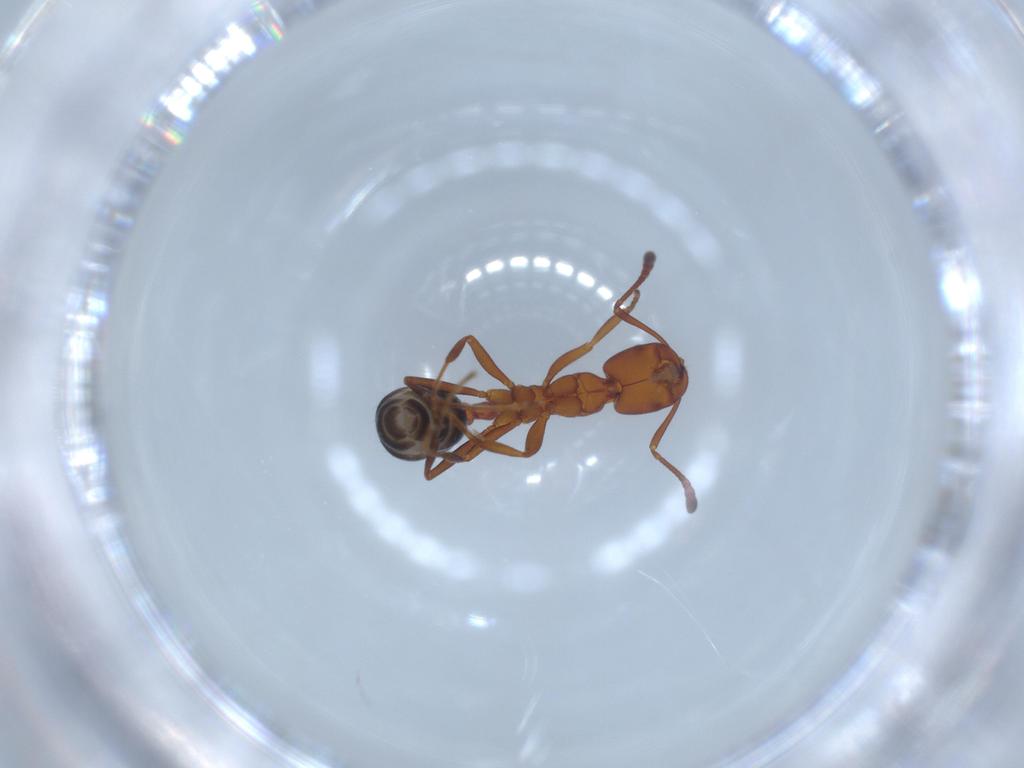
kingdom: Animalia
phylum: Arthropoda
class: Insecta
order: Hymenoptera
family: Formicidae
